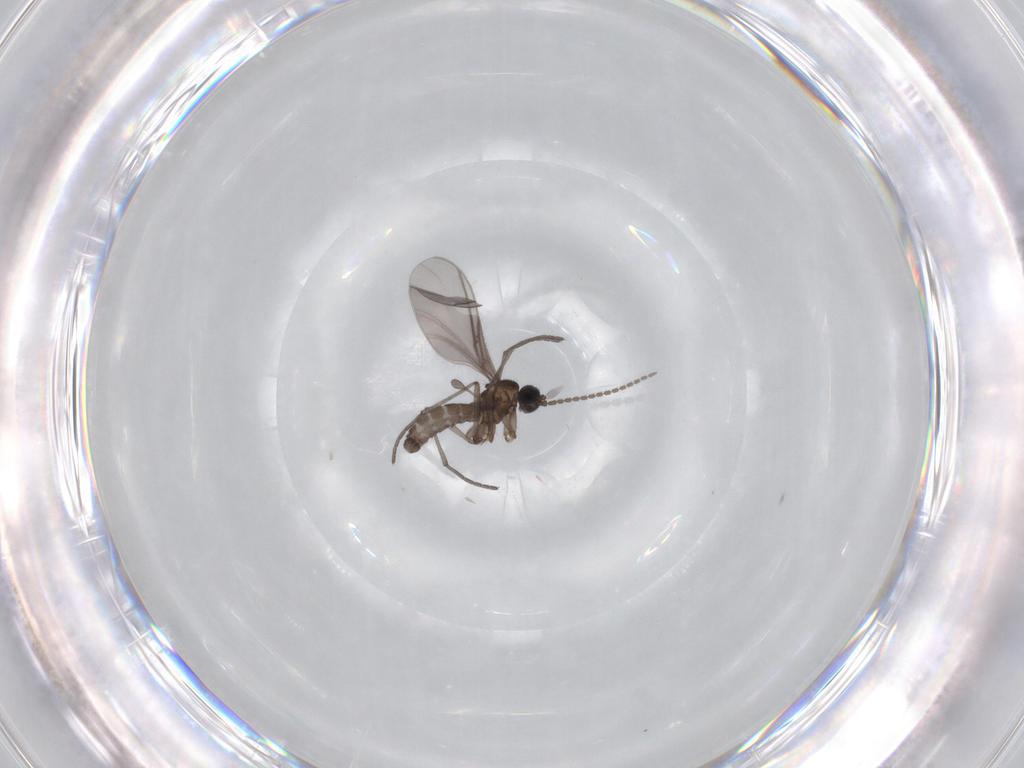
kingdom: Animalia
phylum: Arthropoda
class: Insecta
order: Diptera
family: Sciaridae
